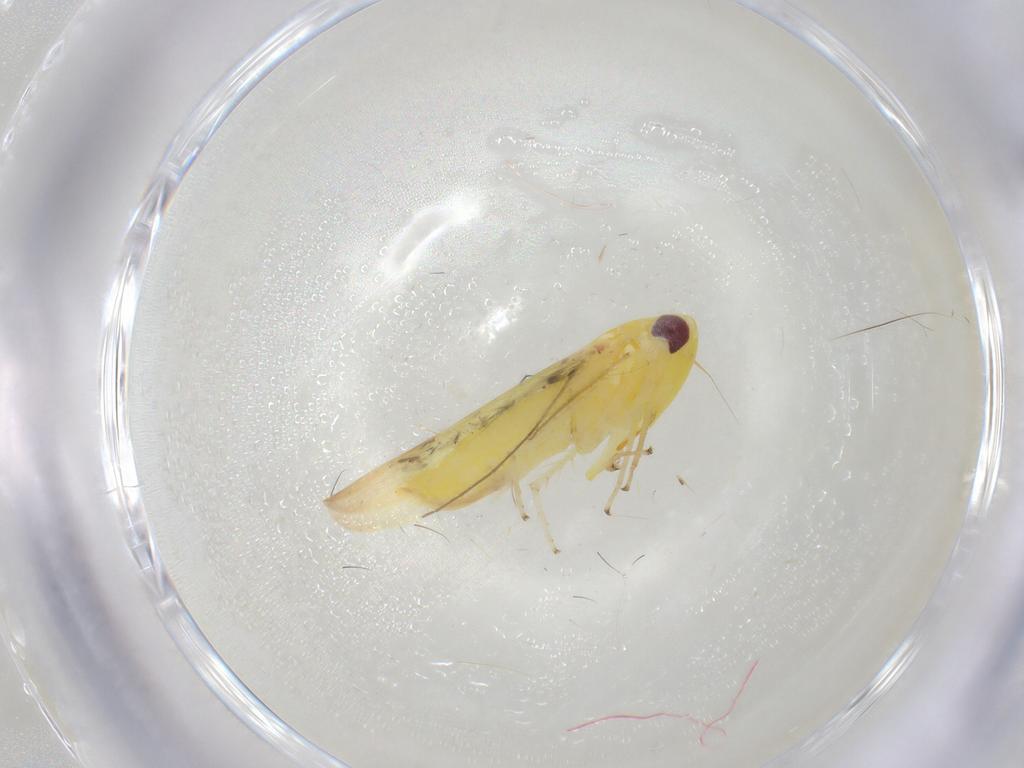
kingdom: Animalia
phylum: Arthropoda
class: Insecta
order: Hemiptera
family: Cicadellidae
